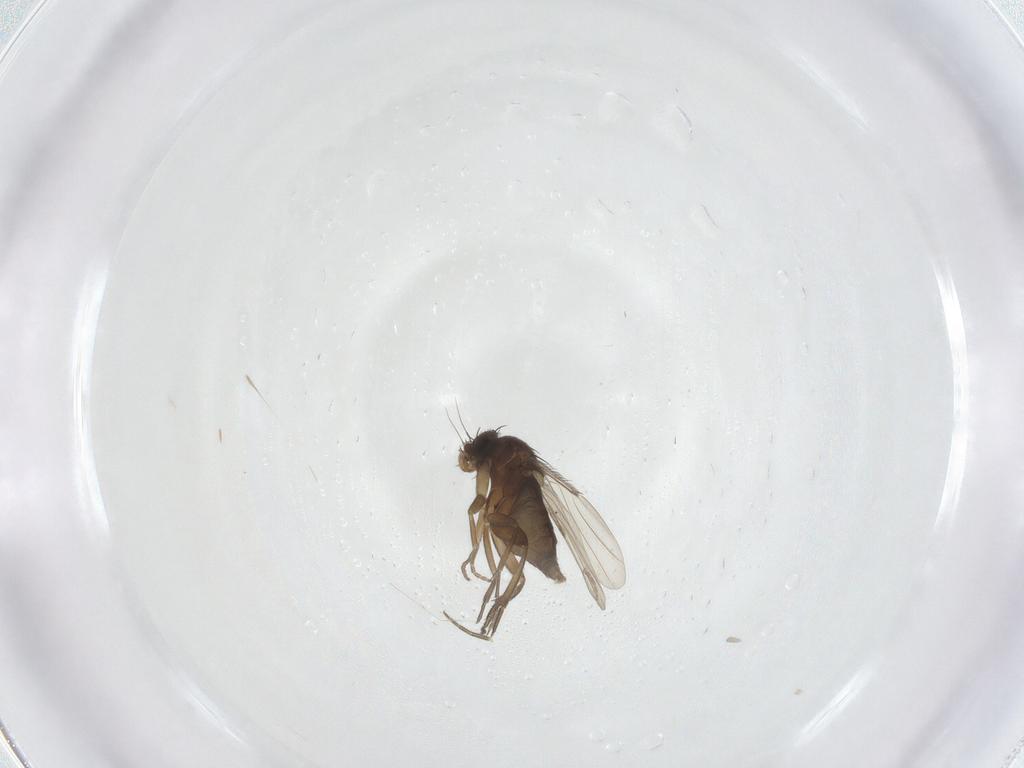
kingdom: Animalia
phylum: Arthropoda
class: Insecta
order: Diptera
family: Phoridae
